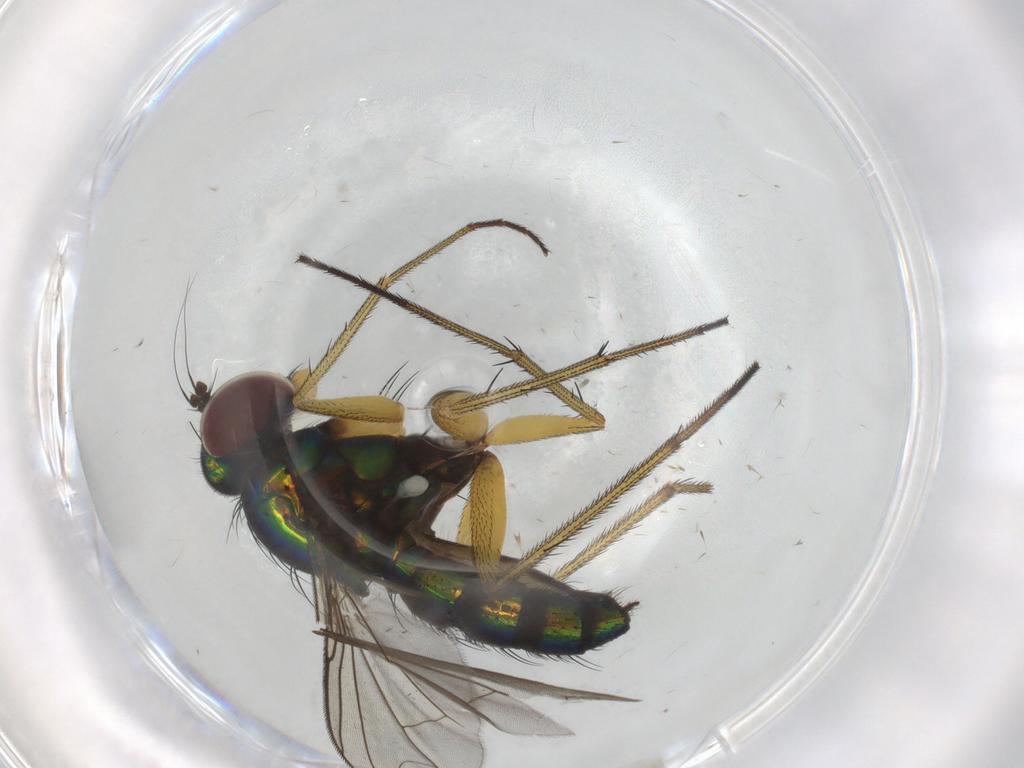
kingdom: Animalia
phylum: Arthropoda
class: Insecta
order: Diptera
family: Dolichopodidae
